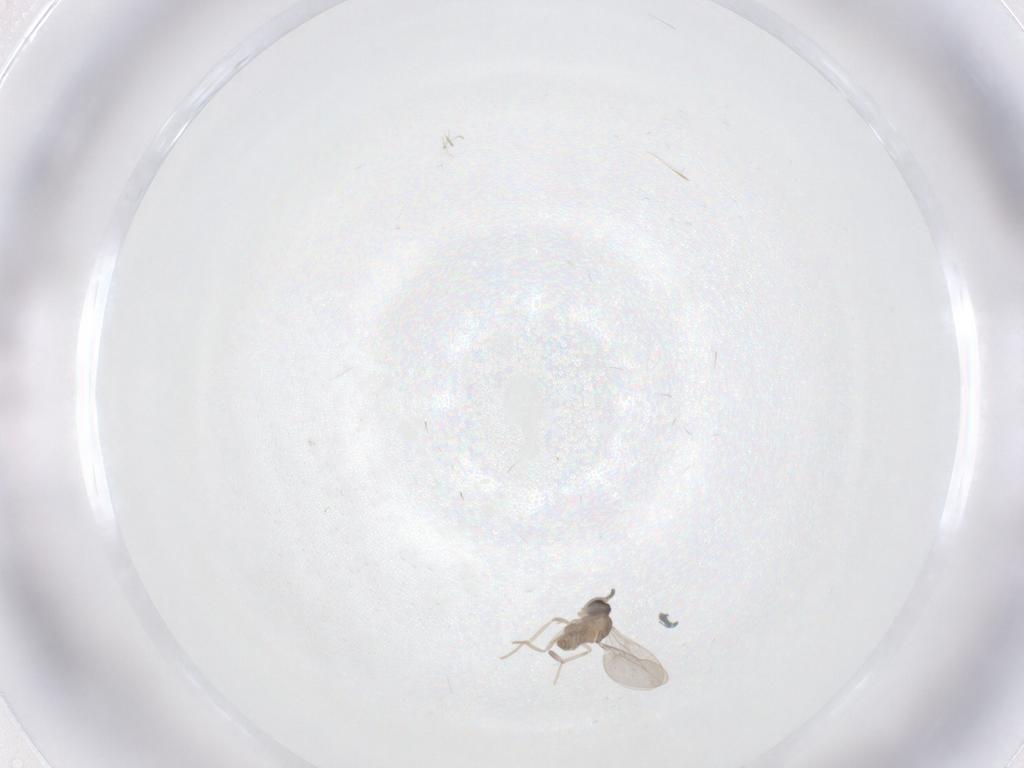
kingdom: Animalia
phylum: Arthropoda
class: Insecta
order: Diptera
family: Cecidomyiidae
